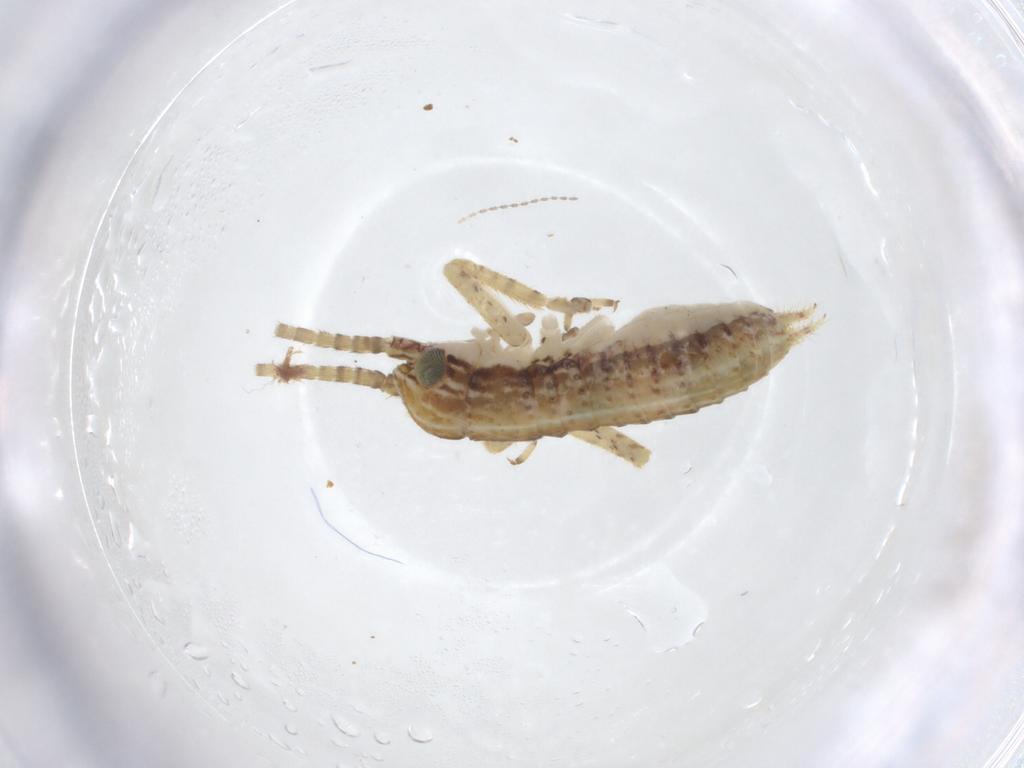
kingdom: Animalia
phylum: Arthropoda
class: Insecta
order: Orthoptera
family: Gryllidae
